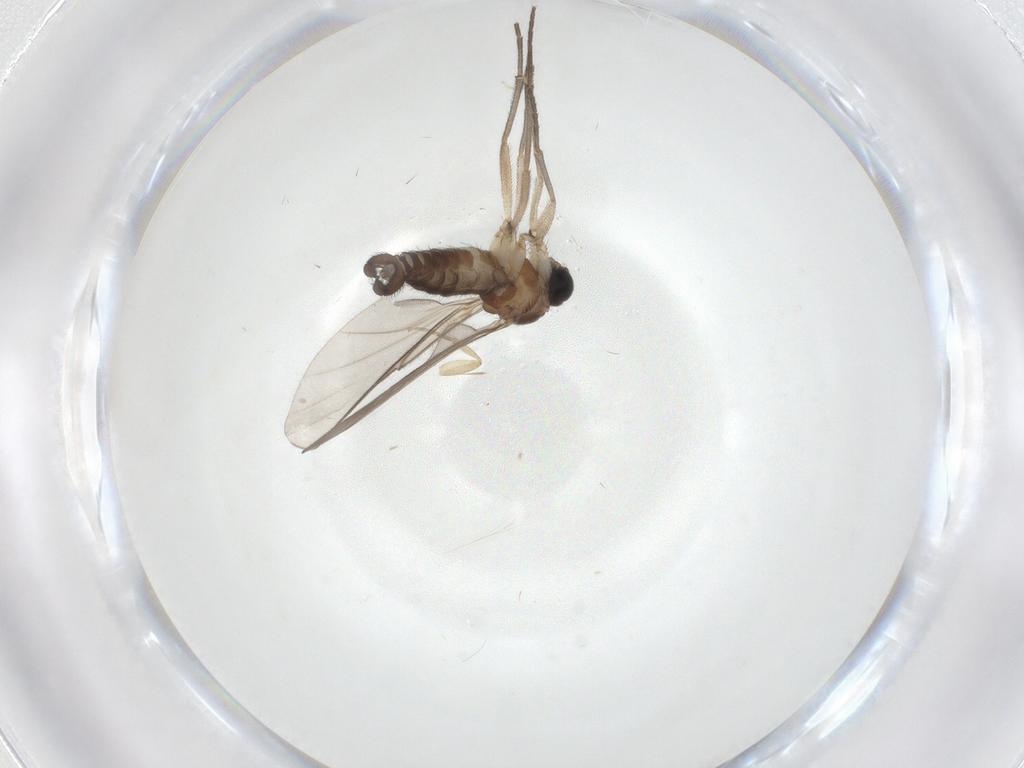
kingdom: Animalia
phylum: Arthropoda
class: Insecta
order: Diptera
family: Sciaridae
